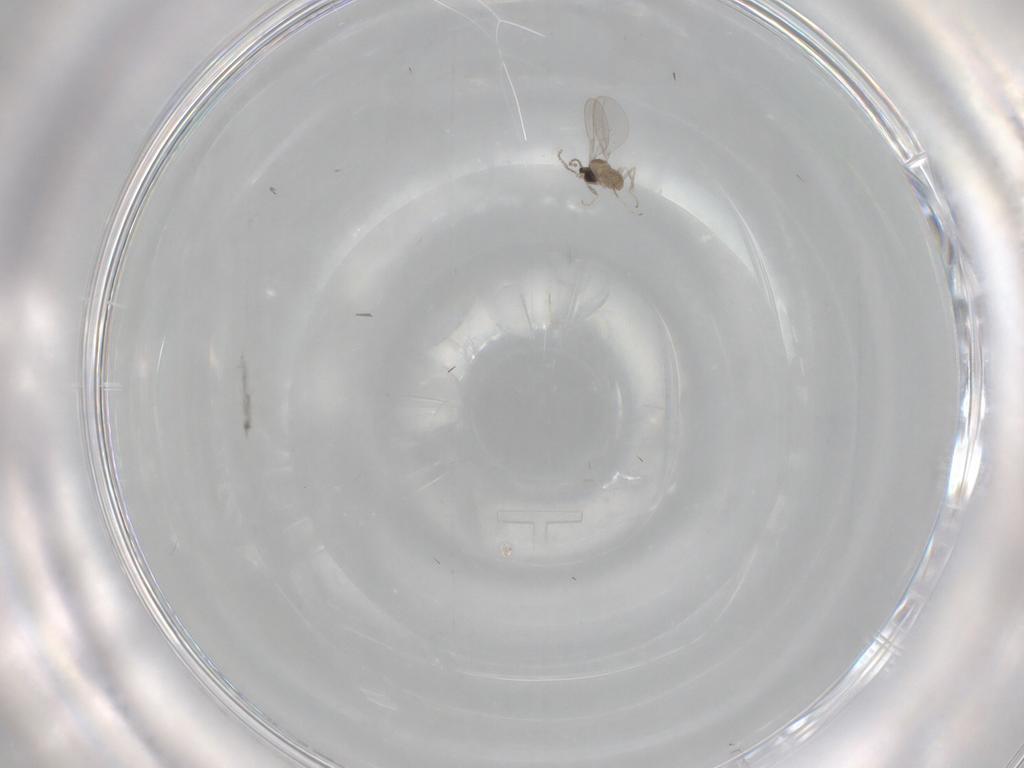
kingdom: Animalia
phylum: Arthropoda
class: Insecta
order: Diptera
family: Cecidomyiidae
